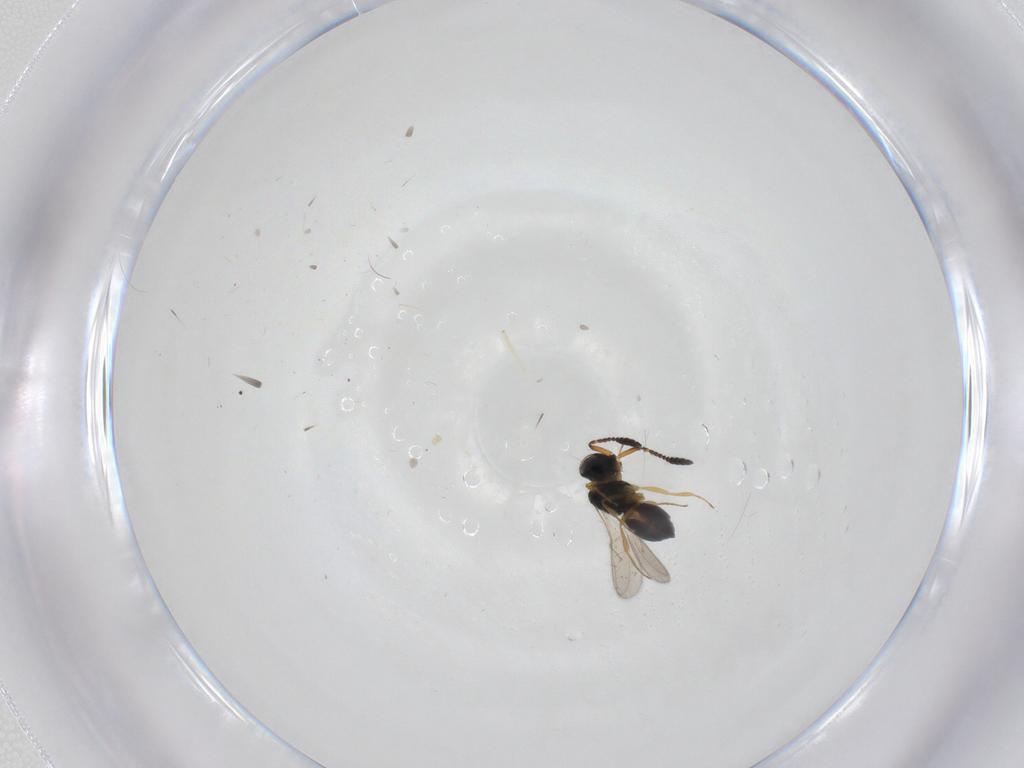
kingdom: Animalia
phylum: Arthropoda
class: Insecta
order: Hymenoptera
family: Scelionidae
